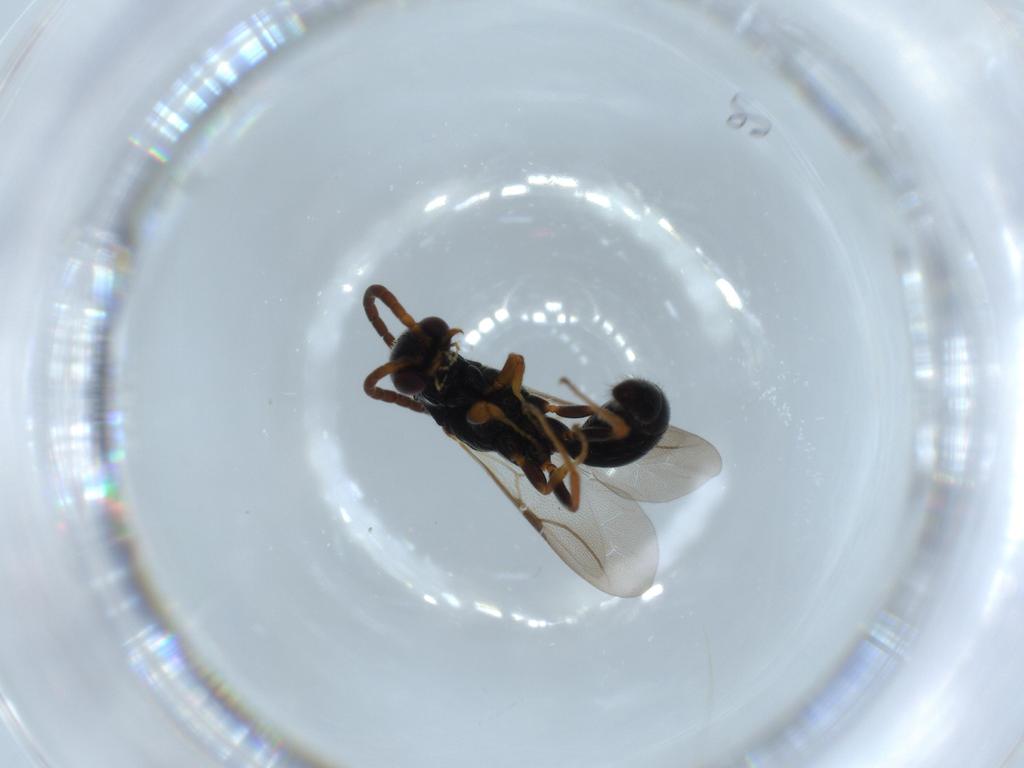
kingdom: Animalia
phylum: Arthropoda
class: Insecta
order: Hymenoptera
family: Bethylidae
